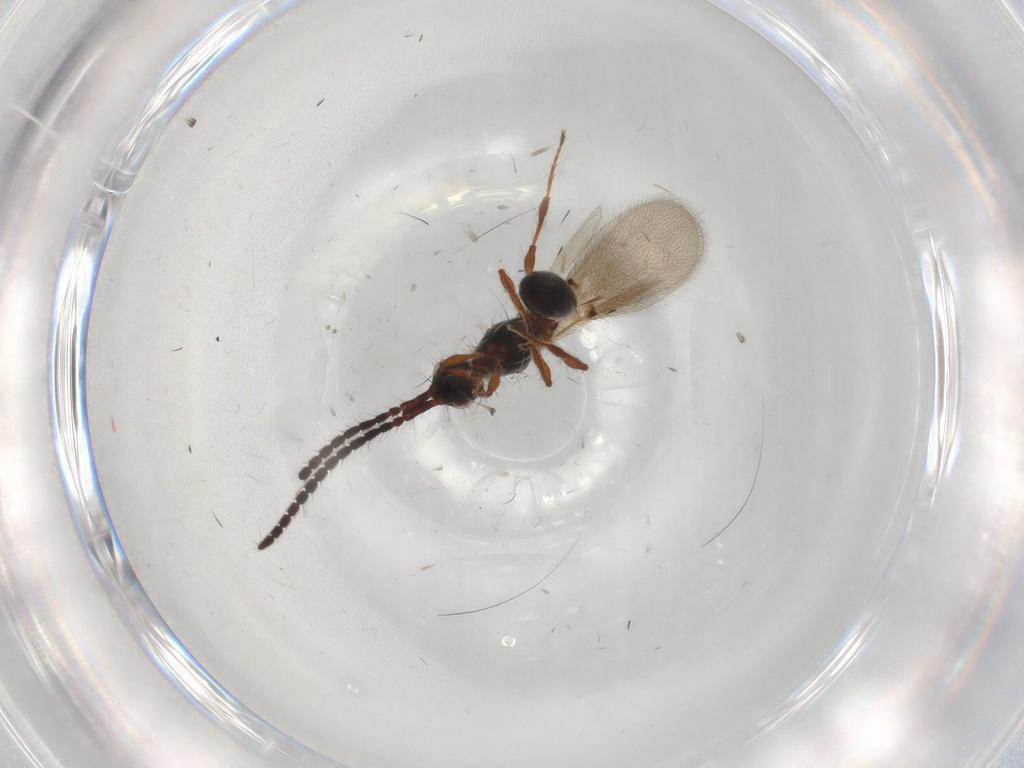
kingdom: Animalia
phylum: Arthropoda
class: Insecta
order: Hymenoptera
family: Diapriidae
